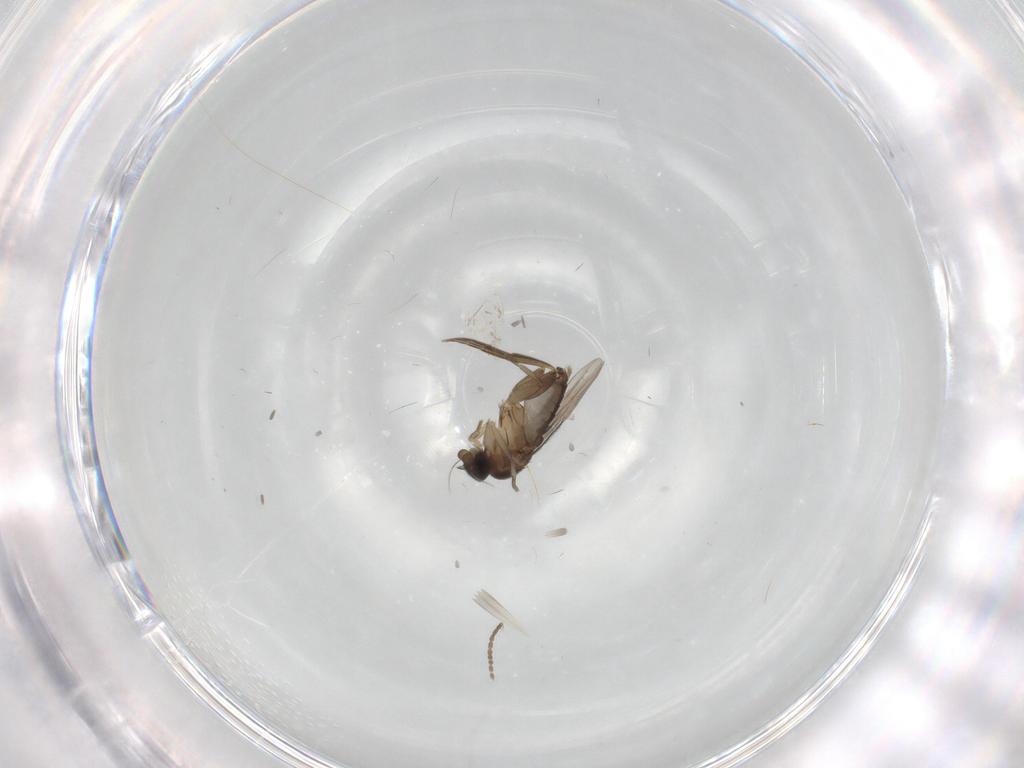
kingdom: Animalia
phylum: Arthropoda
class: Insecta
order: Diptera
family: Phoridae
